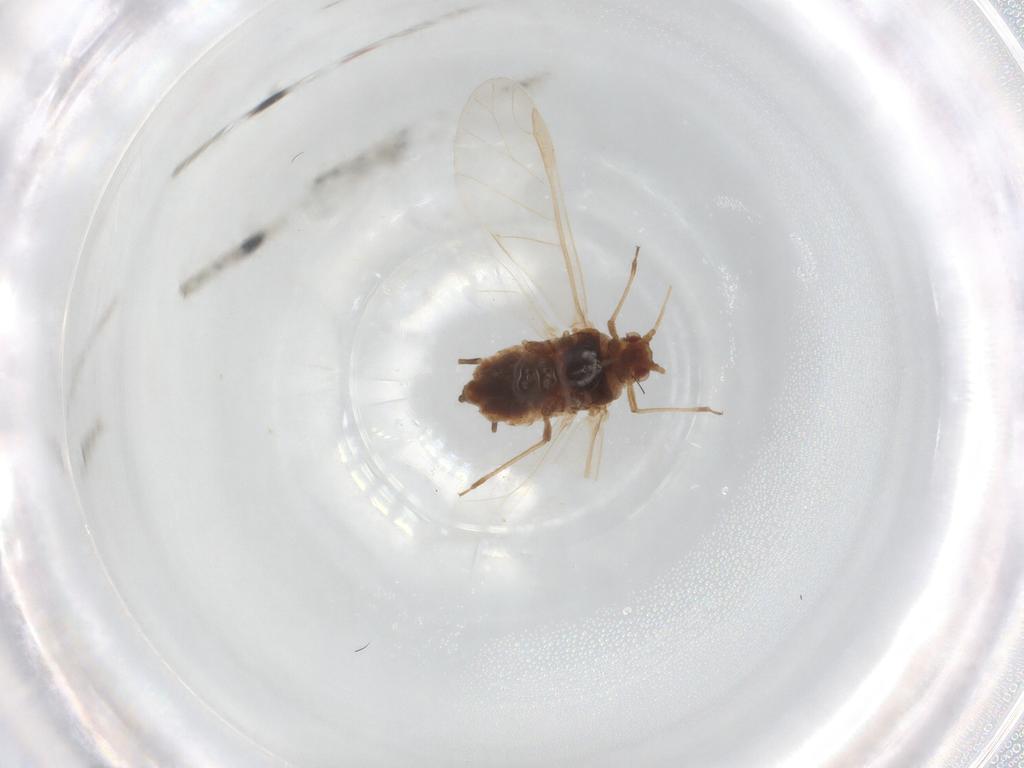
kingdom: Animalia
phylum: Arthropoda
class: Insecta
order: Hemiptera
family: Aphididae
